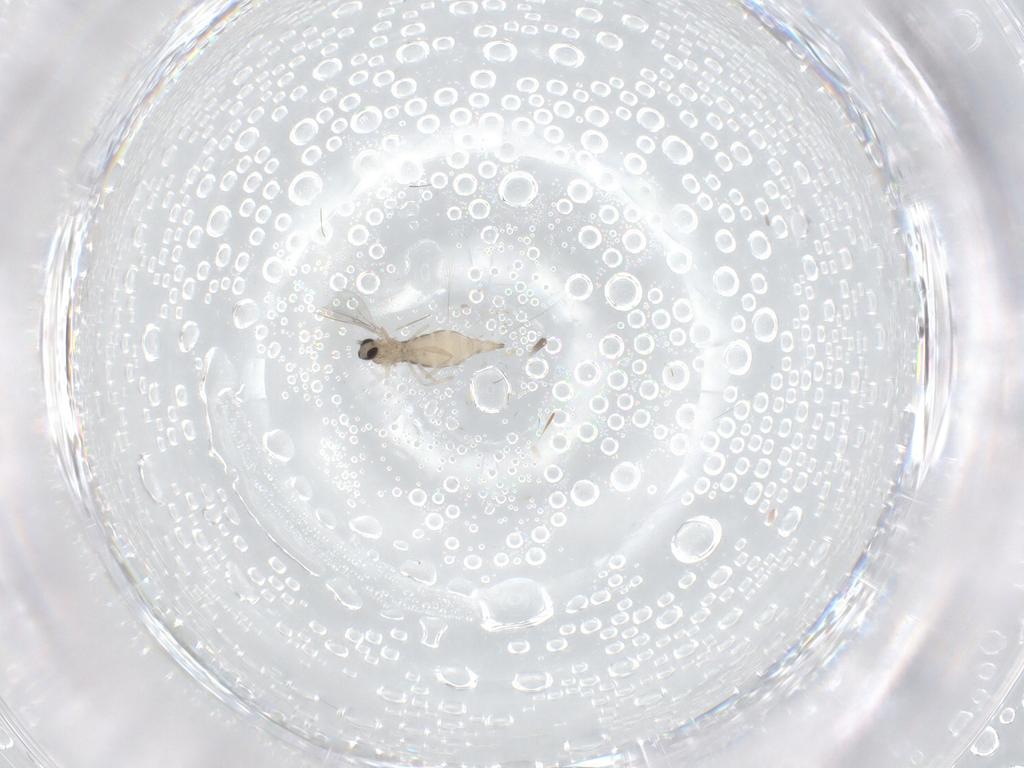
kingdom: Animalia
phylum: Arthropoda
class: Insecta
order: Diptera
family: Cecidomyiidae
